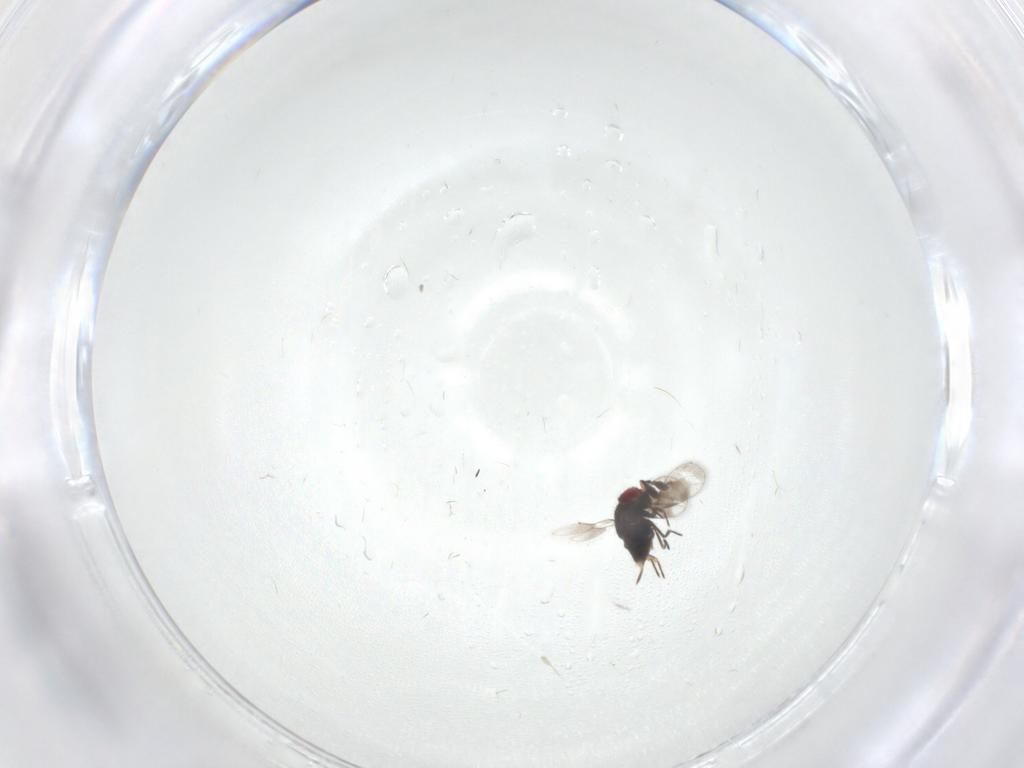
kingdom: Animalia
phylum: Arthropoda
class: Insecta
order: Hymenoptera
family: Eulophidae
